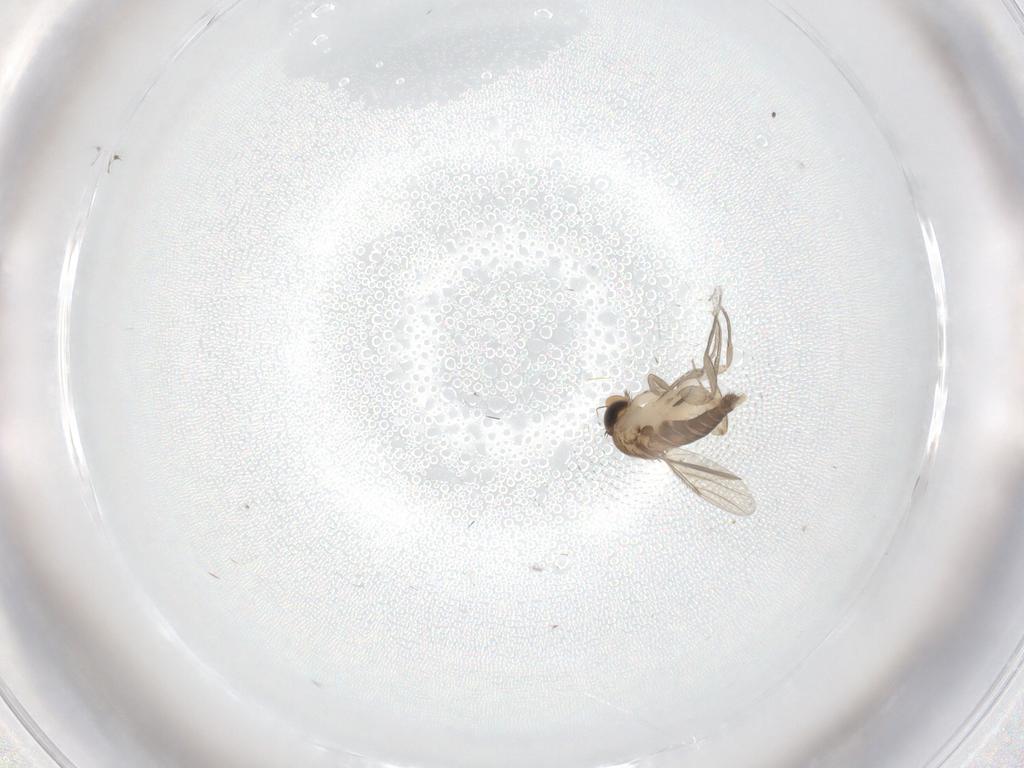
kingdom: Animalia
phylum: Arthropoda
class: Insecta
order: Diptera
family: Phoridae
